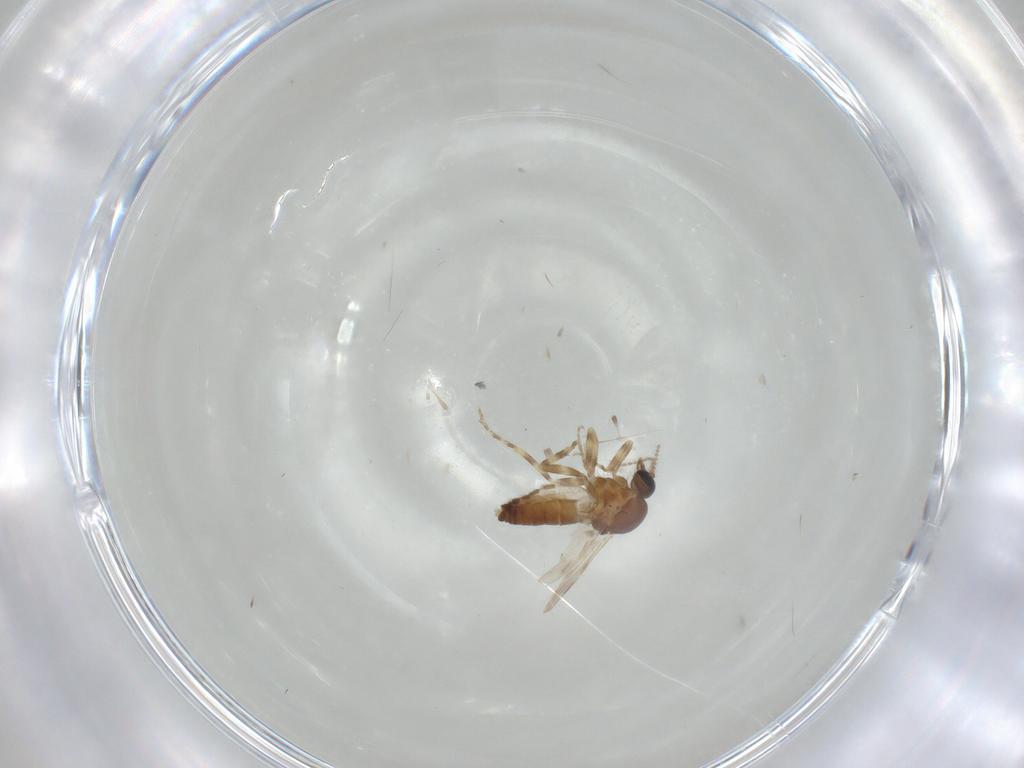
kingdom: Animalia
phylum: Arthropoda
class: Insecta
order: Diptera
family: Ceratopogonidae
